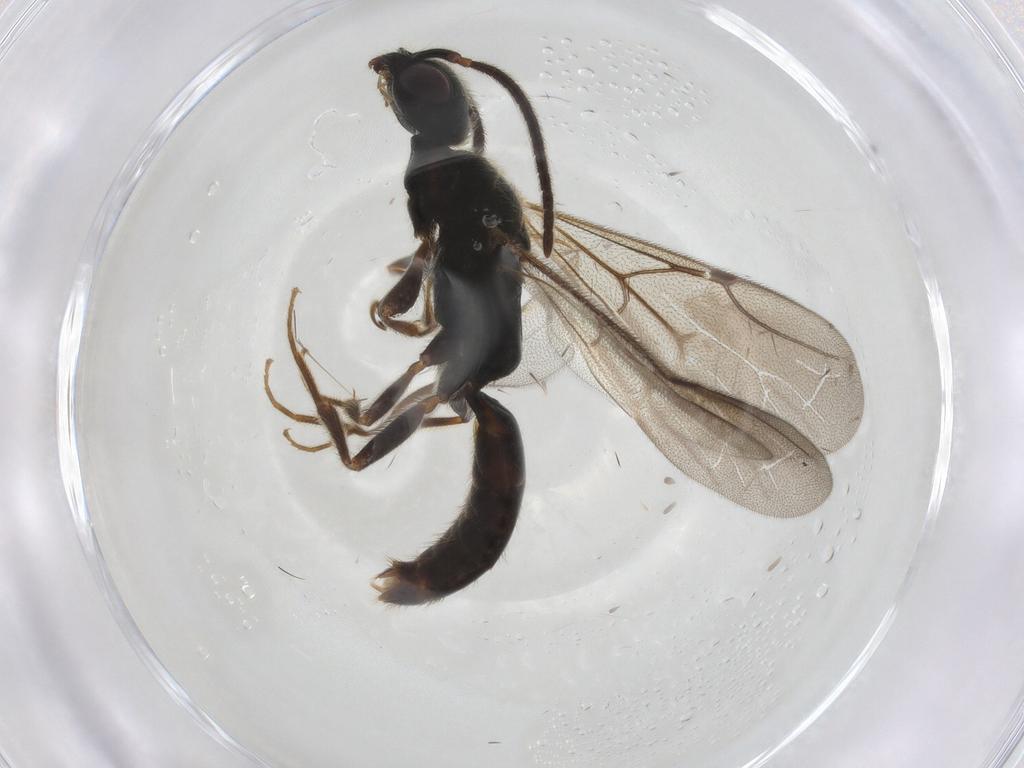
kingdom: Animalia
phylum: Arthropoda
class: Insecta
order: Hymenoptera
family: Bethylidae
